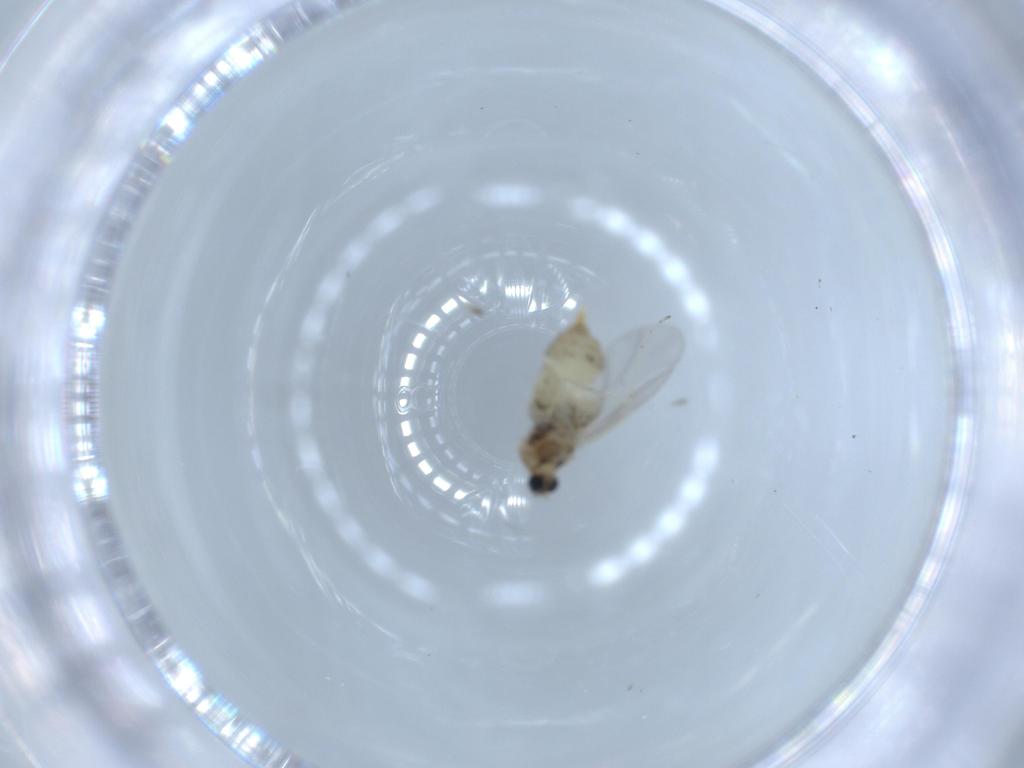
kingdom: Animalia
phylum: Arthropoda
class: Insecta
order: Diptera
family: Cecidomyiidae
